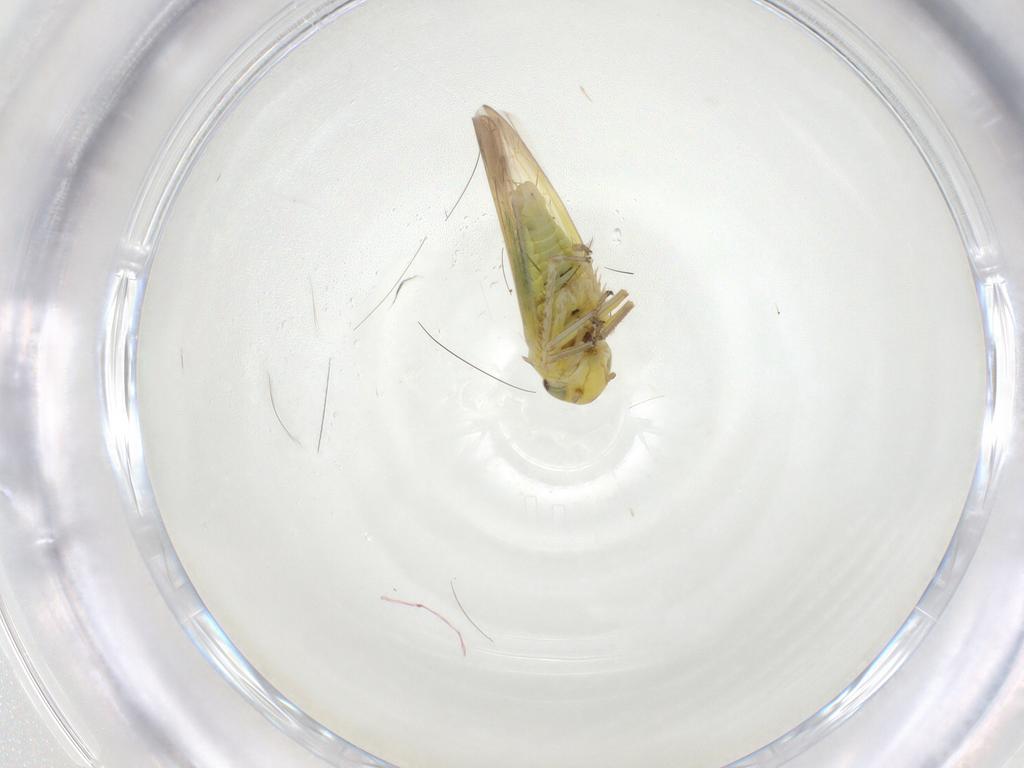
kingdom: Animalia
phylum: Arthropoda
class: Insecta
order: Hemiptera
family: Cicadellidae
